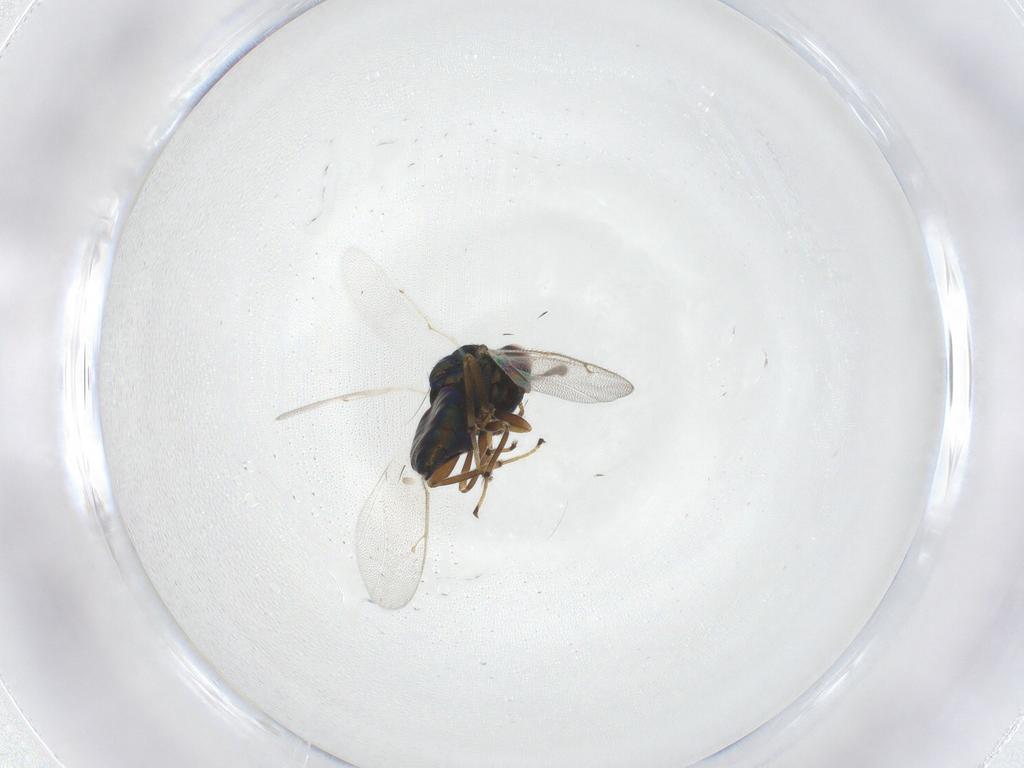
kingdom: Animalia
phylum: Arthropoda
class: Insecta
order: Hymenoptera
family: Pteromalidae
